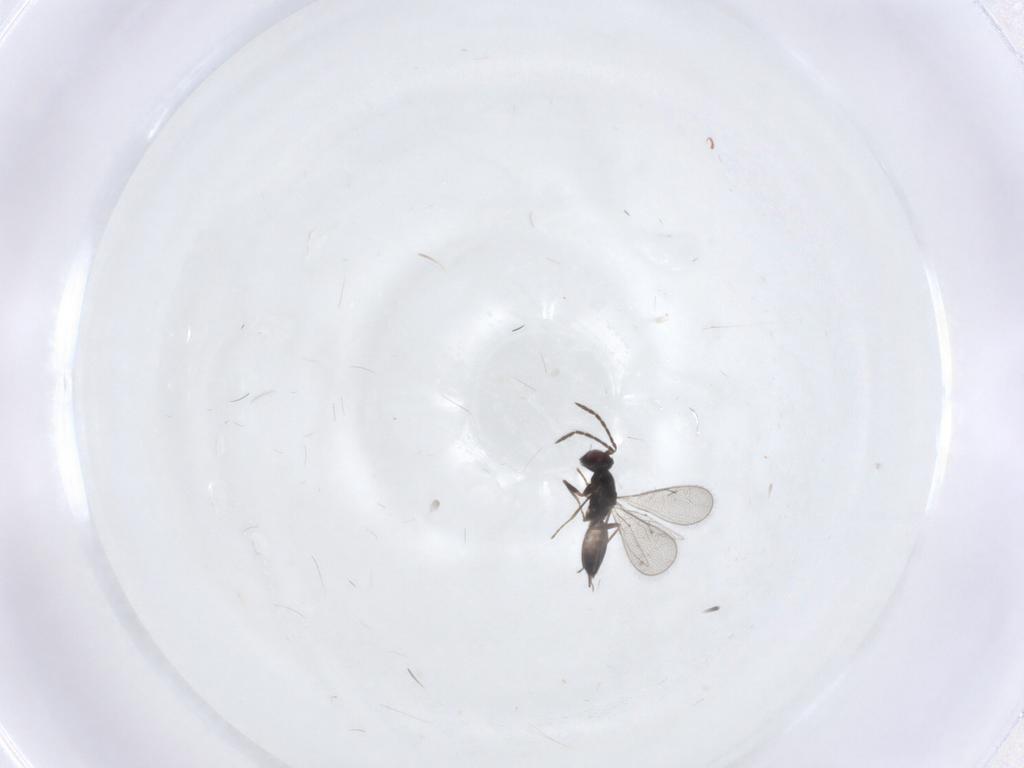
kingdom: Animalia
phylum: Arthropoda
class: Insecta
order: Hymenoptera
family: Eulophidae
